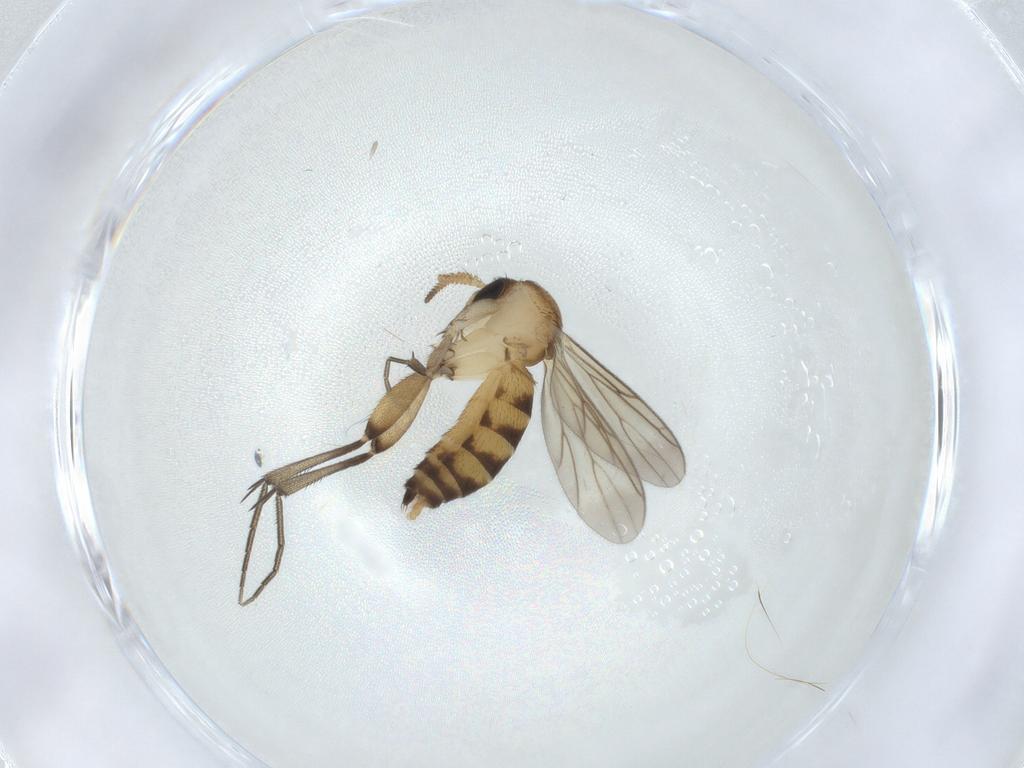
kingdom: Animalia
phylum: Arthropoda
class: Insecta
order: Diptera
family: Mycetophilidae
